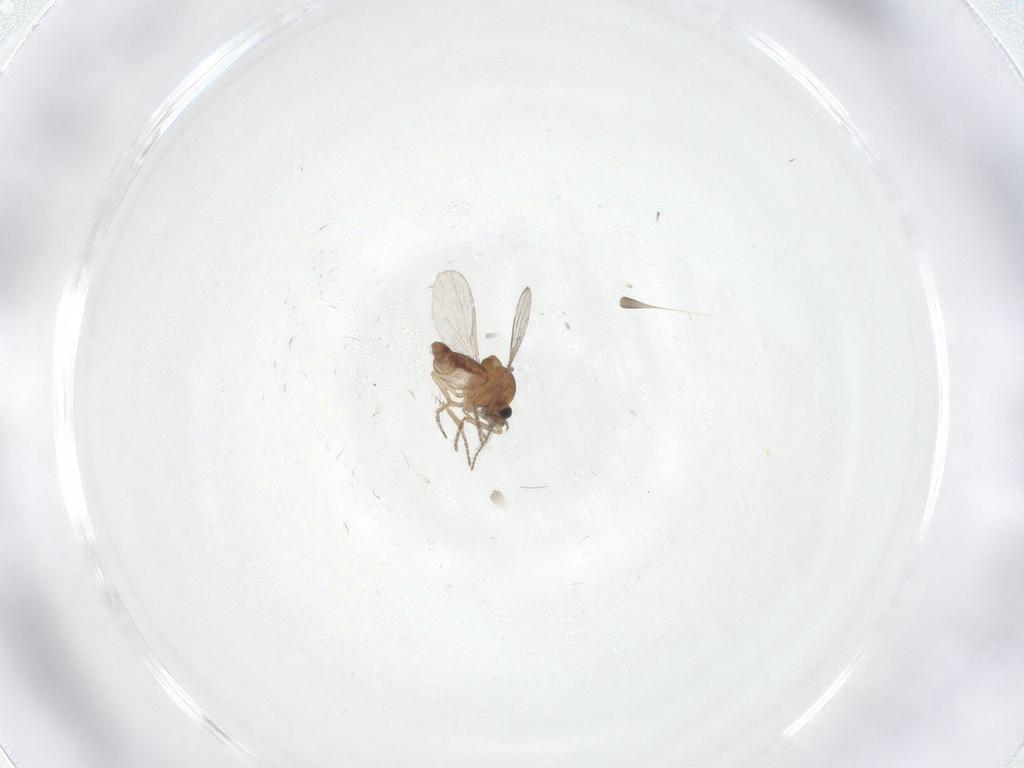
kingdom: Animalia
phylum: Arthropoda
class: Insecta
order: Diptera
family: Ceratopogonidae
